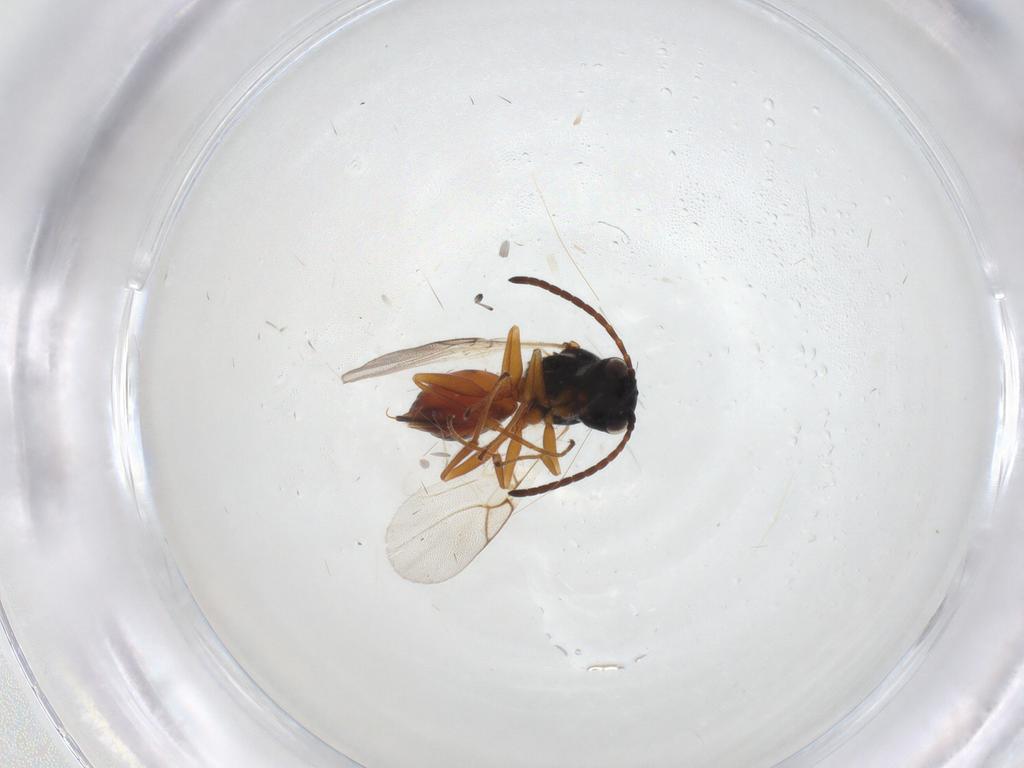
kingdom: Animalia
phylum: Arthropoda
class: Insecta
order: Hymenoptera
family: Cynipidae
